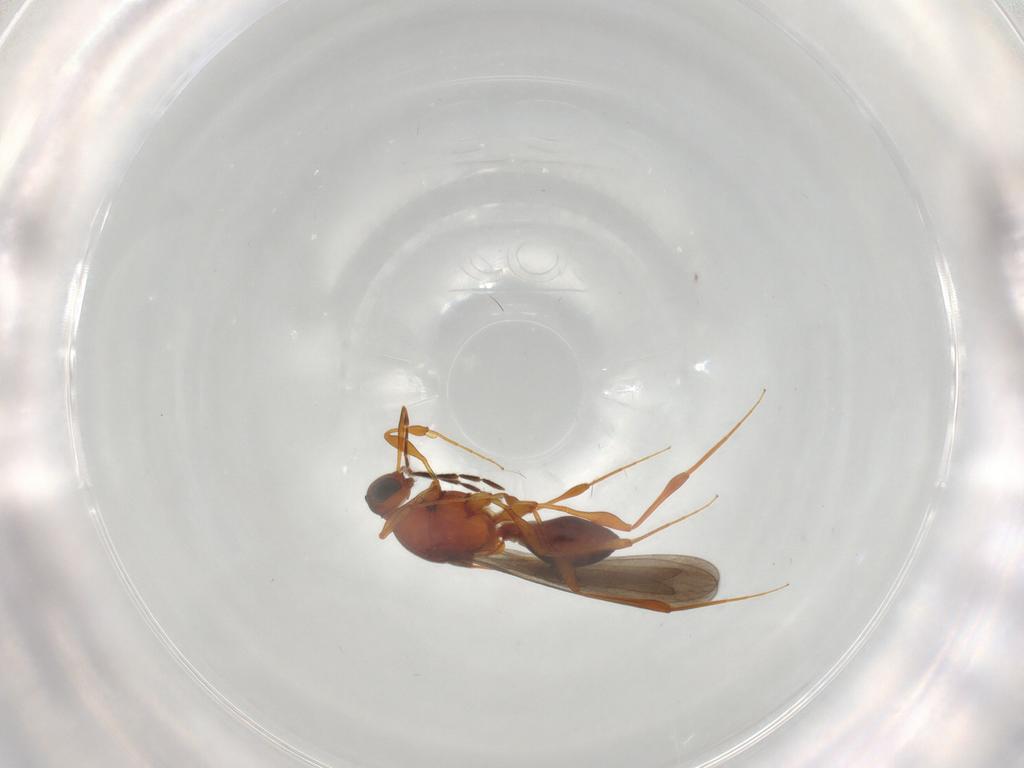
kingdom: Animalia
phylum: Arthropoda
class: Insecta
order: Hymenoptera
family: Platygastridae
